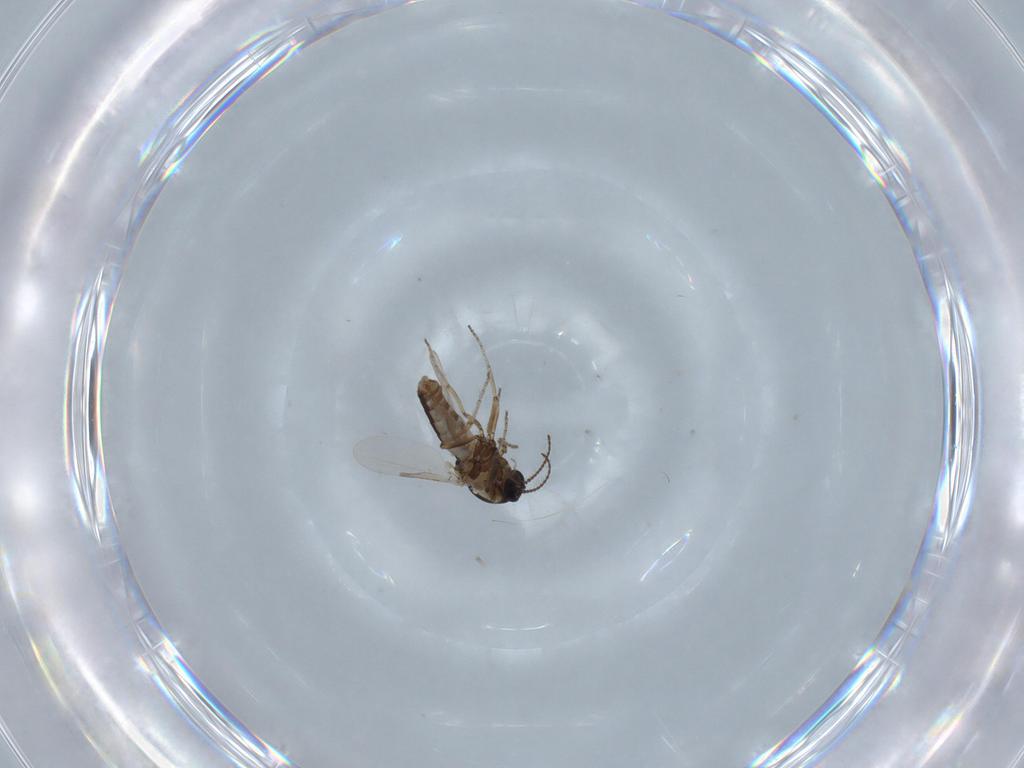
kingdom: Animalia
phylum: Arthropoda
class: Insecta
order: Diptera
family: Ceratopogonidae
